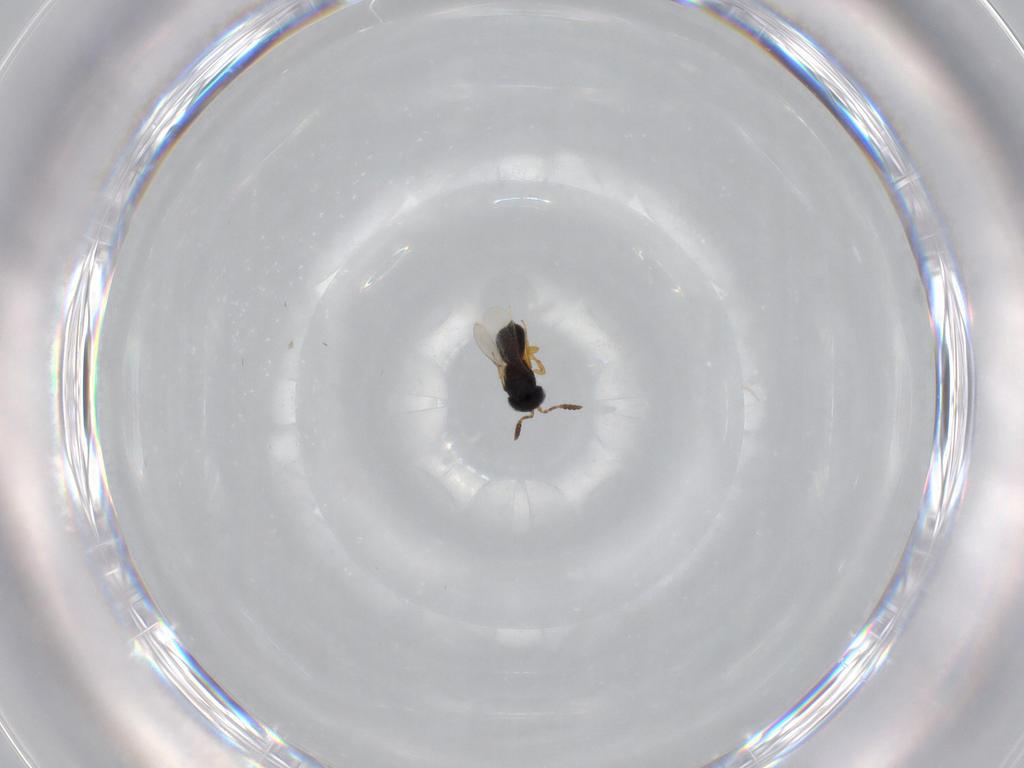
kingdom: Animalia
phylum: Arthropoda
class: Insecta
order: Hymenoptera
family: Scelionidae
